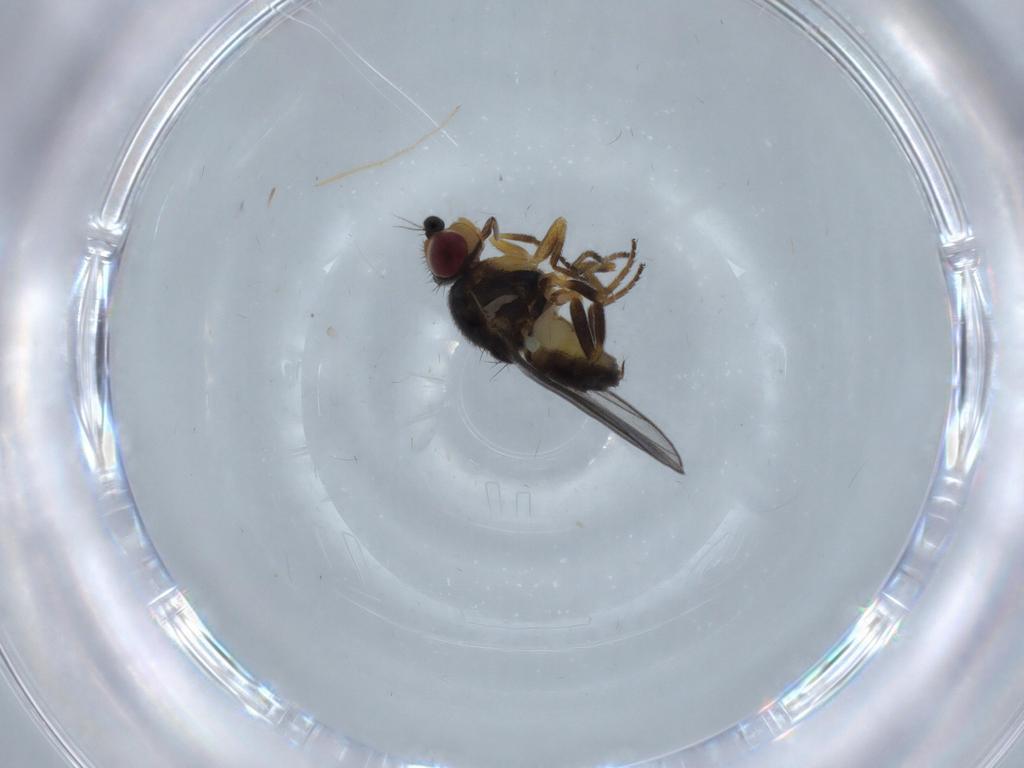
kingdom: Animalia
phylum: Arthropoda
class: Insecta
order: Diptera
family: Chloropidae
